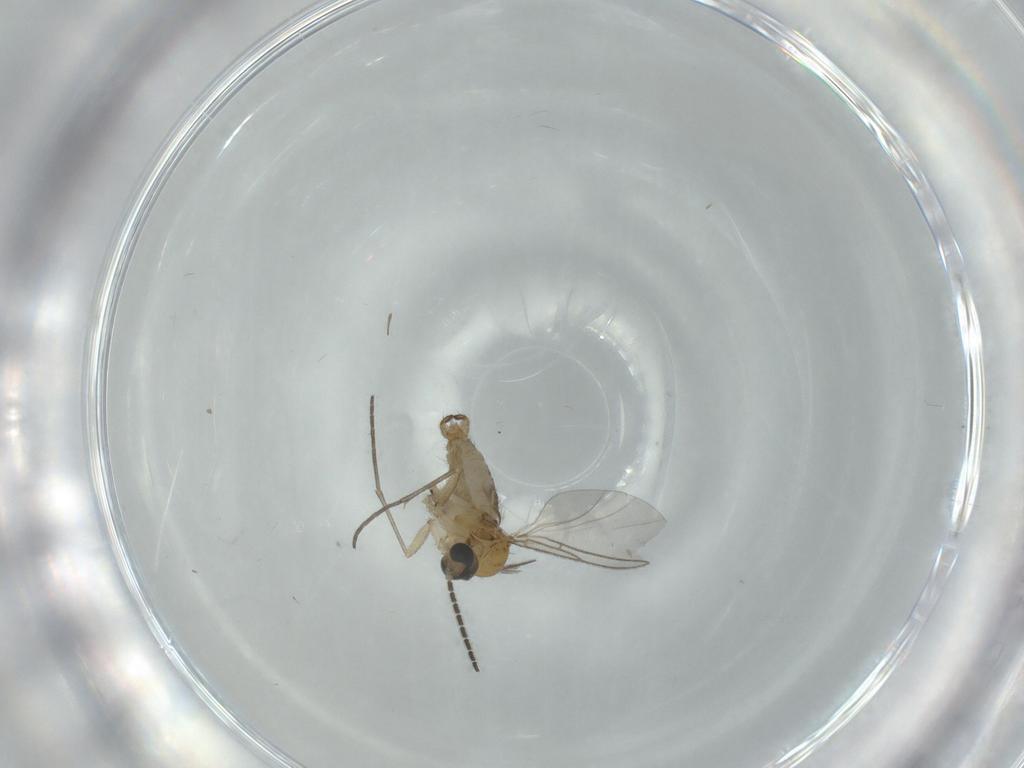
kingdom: Animalia
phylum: Arthropoda
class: Insecta
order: Diptera
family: Sciaridae
